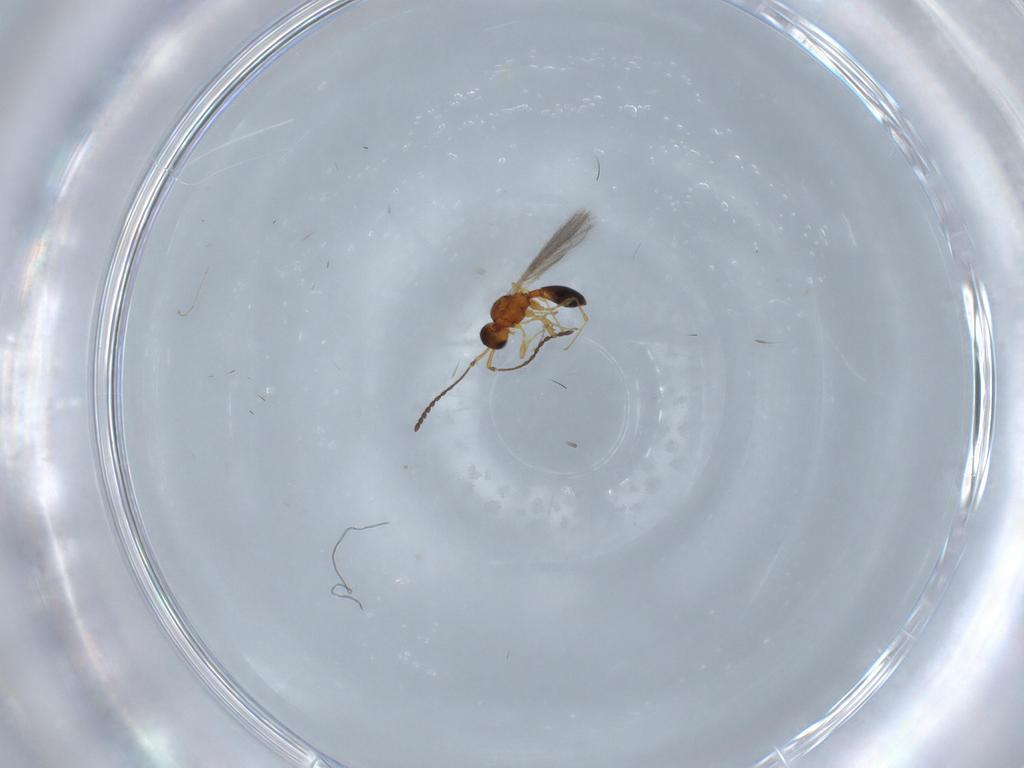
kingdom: Animalia
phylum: Arthropoda
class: Insecta
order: Hymenoptera
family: Diapriidae
